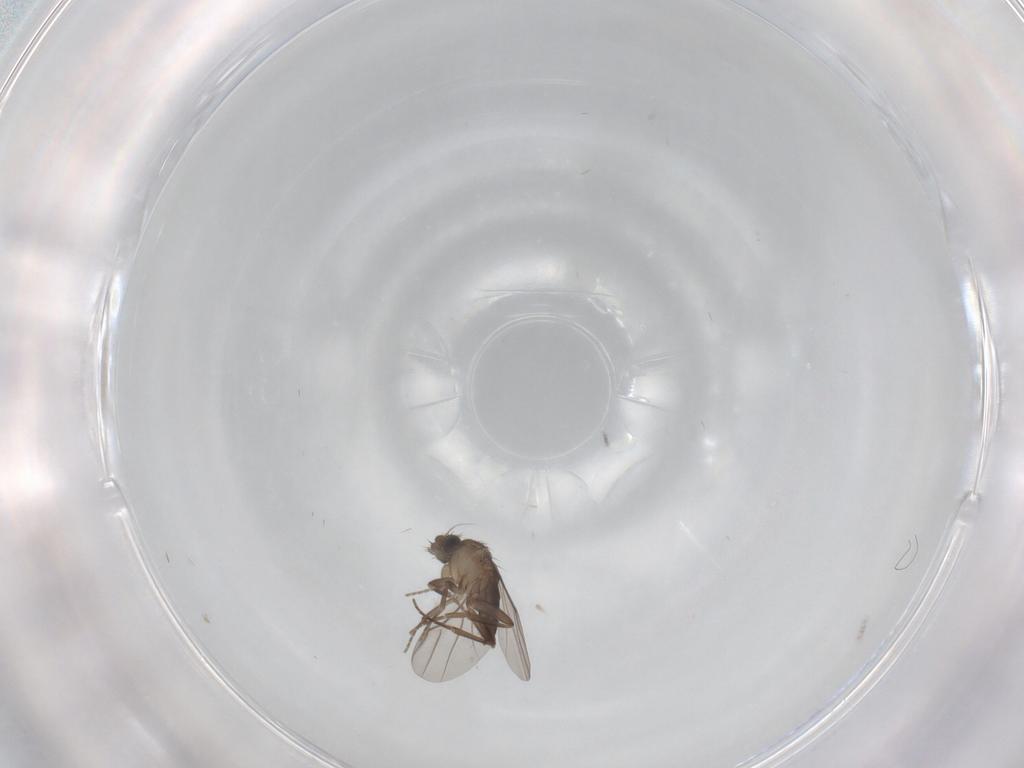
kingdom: Animalia
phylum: Arthropoda
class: Insecta
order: Diptera
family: Phoridae
